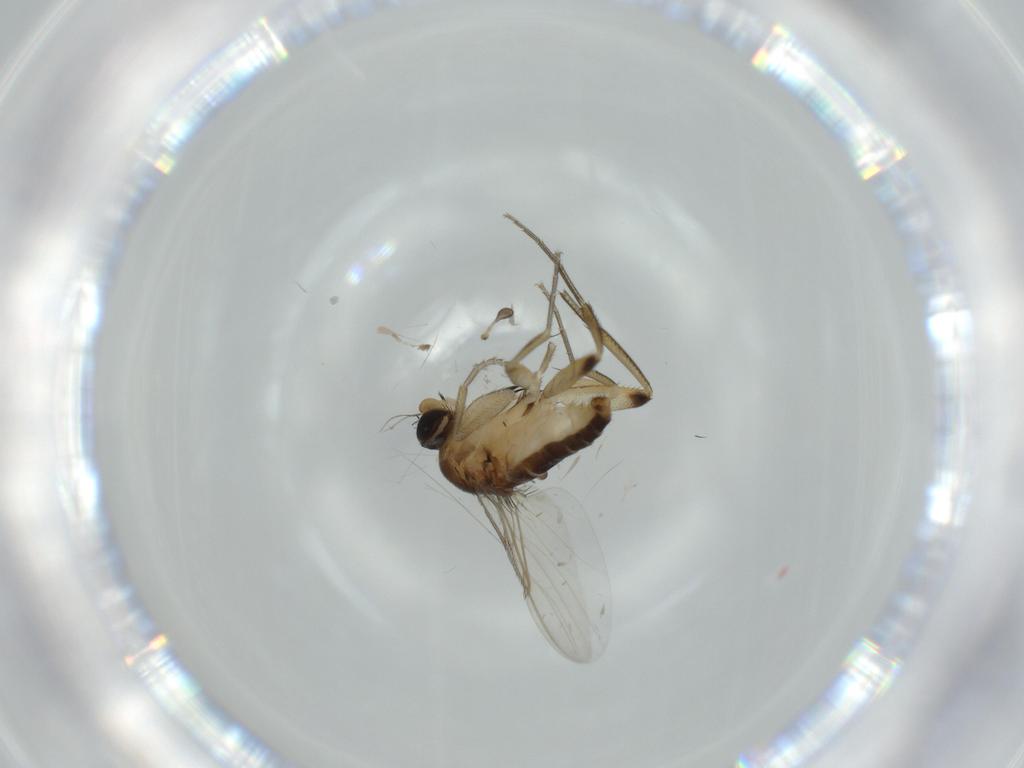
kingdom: Animalia
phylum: Arthropoda
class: Insecta
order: Diptera
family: Phoridae
